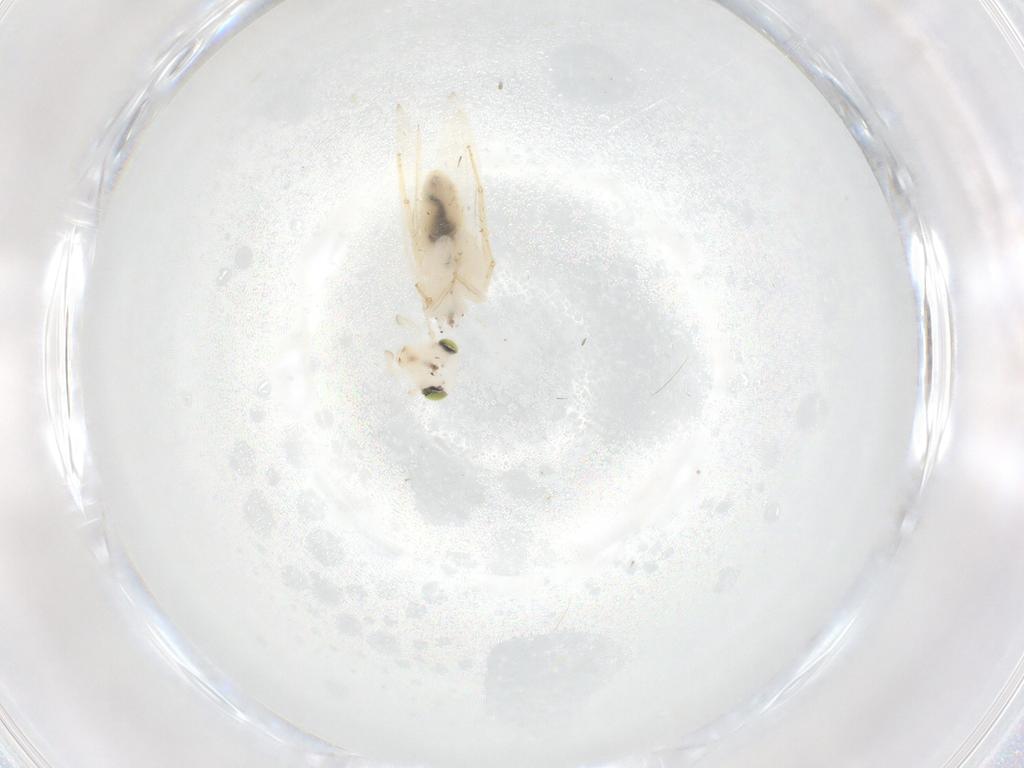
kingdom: Animalia
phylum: Arthropoda
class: Insecta
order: Psocodea
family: Lepidopsocidae
